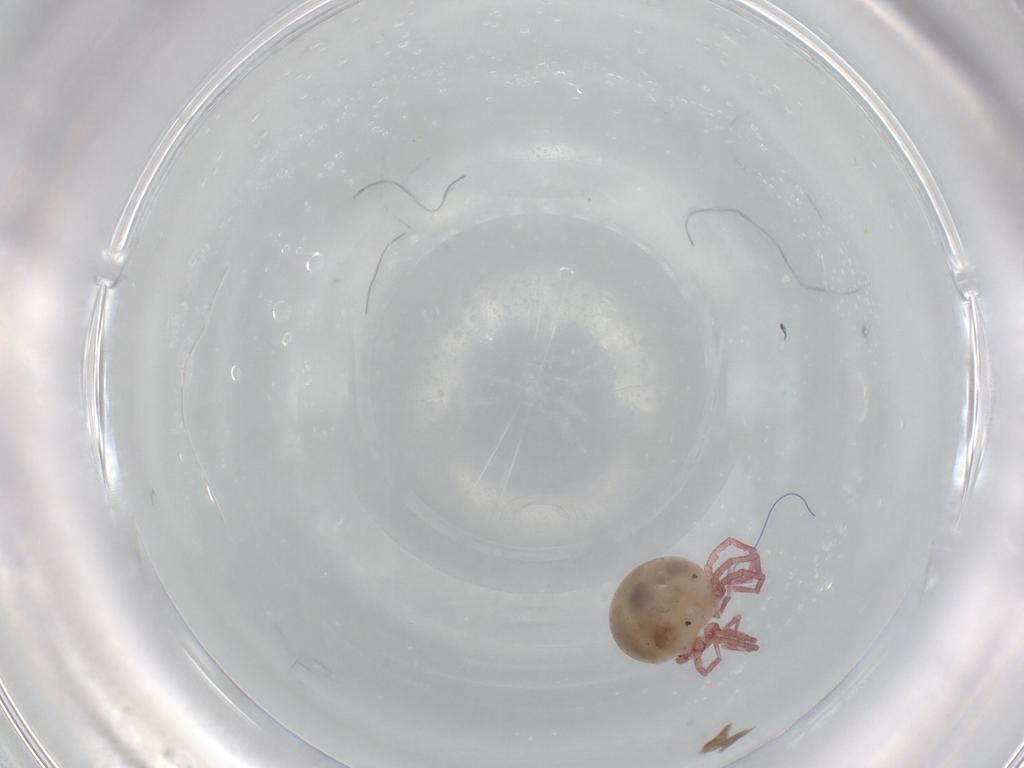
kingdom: Animalia
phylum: Arthropoda
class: Arachnida
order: Trombidiformes
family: Pionidae
